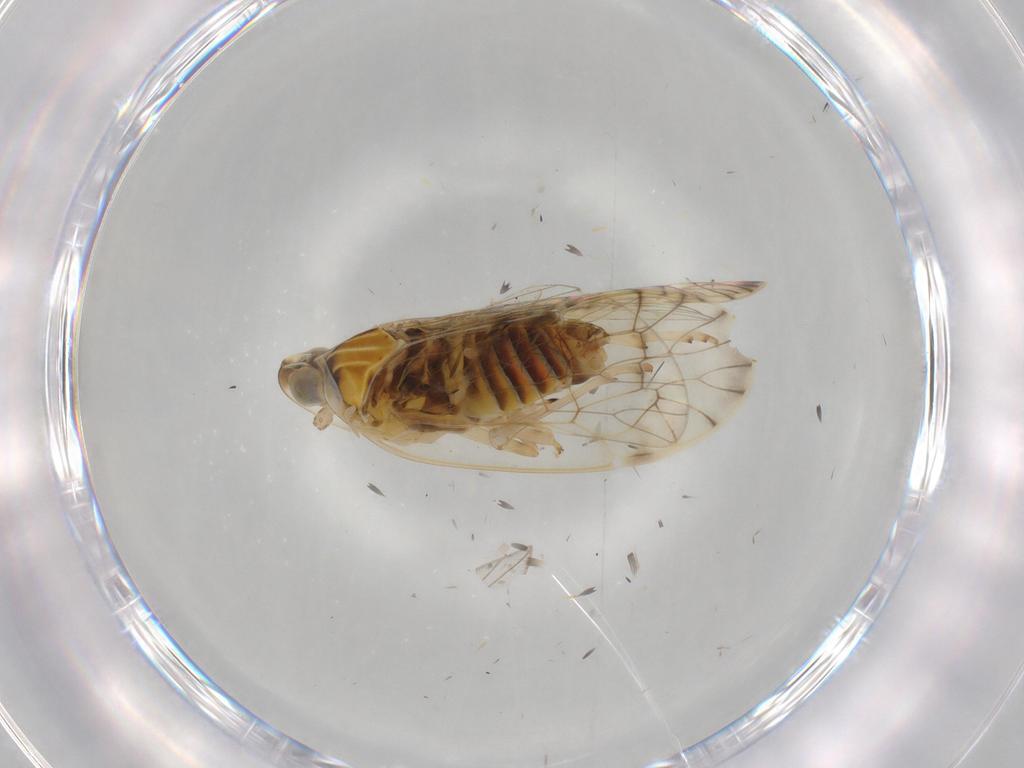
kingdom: Animalia
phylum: Arthropoda
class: Insecta
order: Hemiptera
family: Kinnaridae
